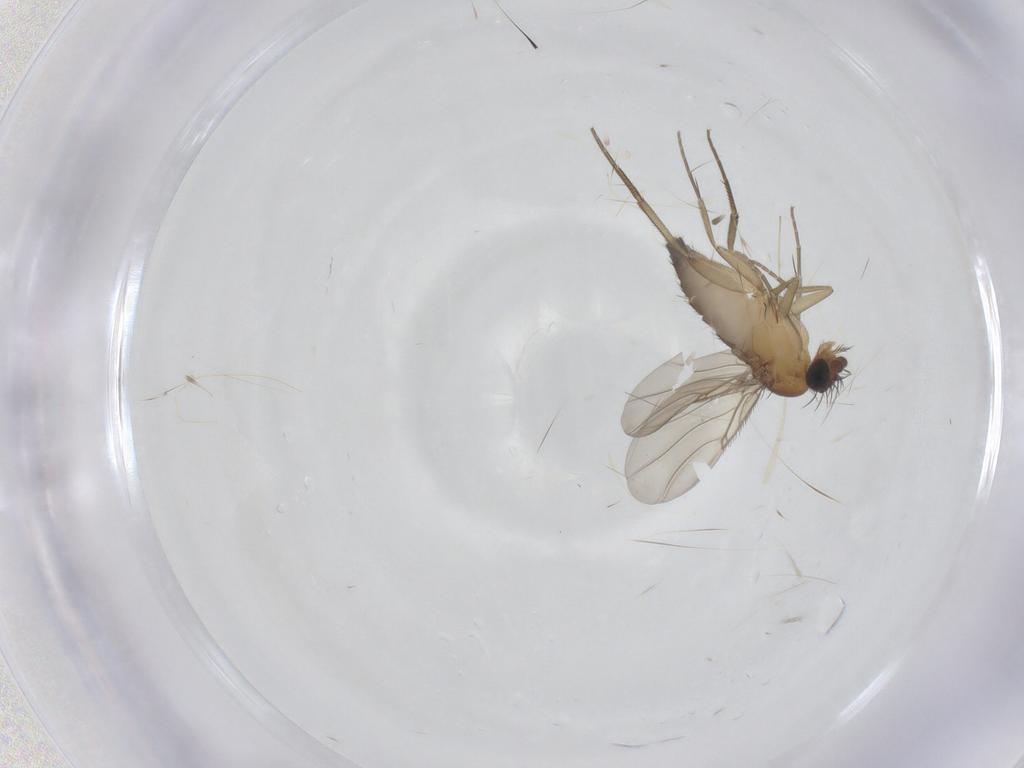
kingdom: Animalia
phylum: Arthropoda
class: Insecta
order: Diptera
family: Phoridae
